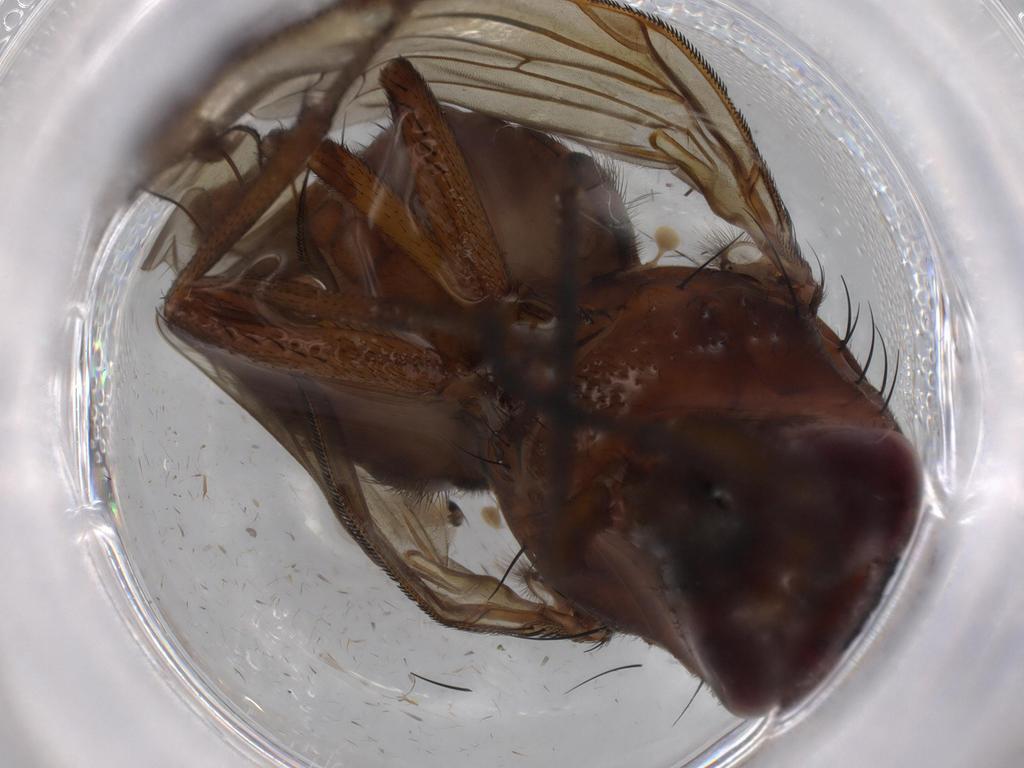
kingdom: Animalia
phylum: Arthropoda
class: Insecta
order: Diptera
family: Psychodidae
